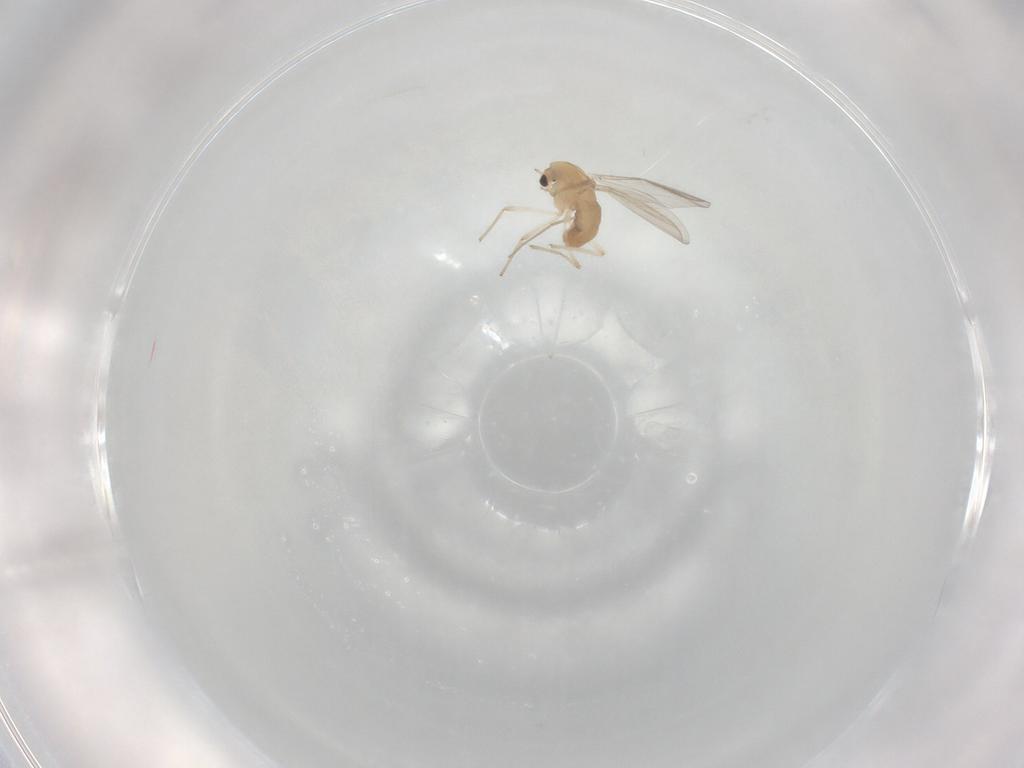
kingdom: Animalia
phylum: Arthropoda
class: Insecta
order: Diptera
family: Chironomidae
